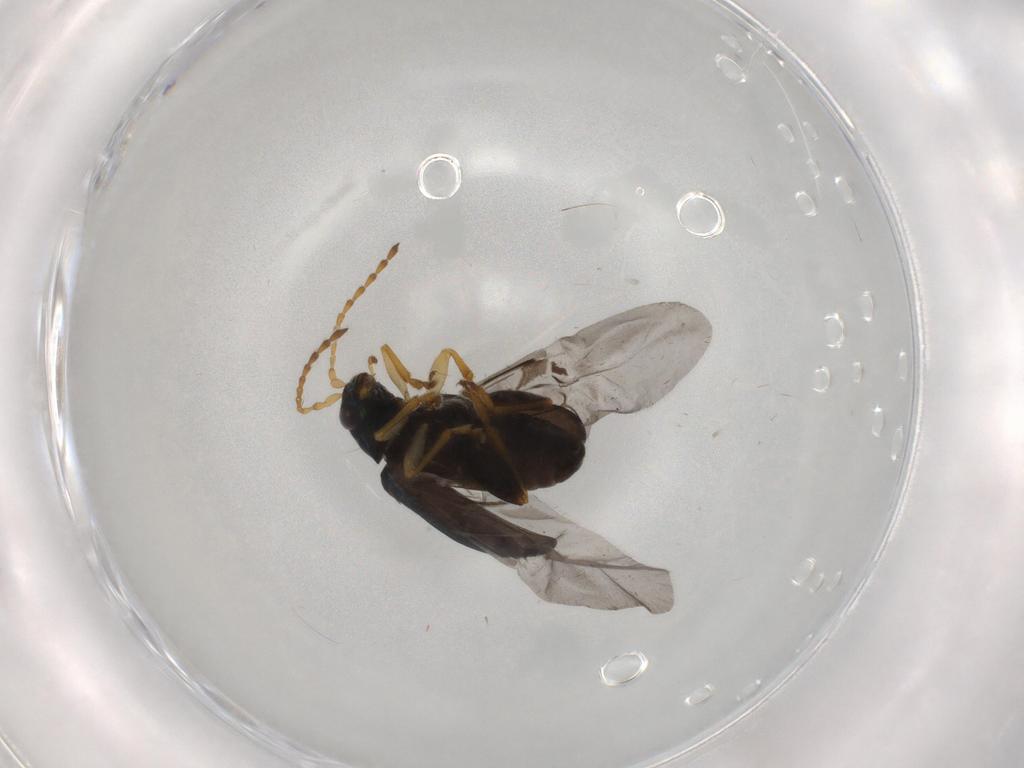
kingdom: Animalia
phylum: Arthropoda
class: Insecta
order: Coleoptera
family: Chrysomelidae
